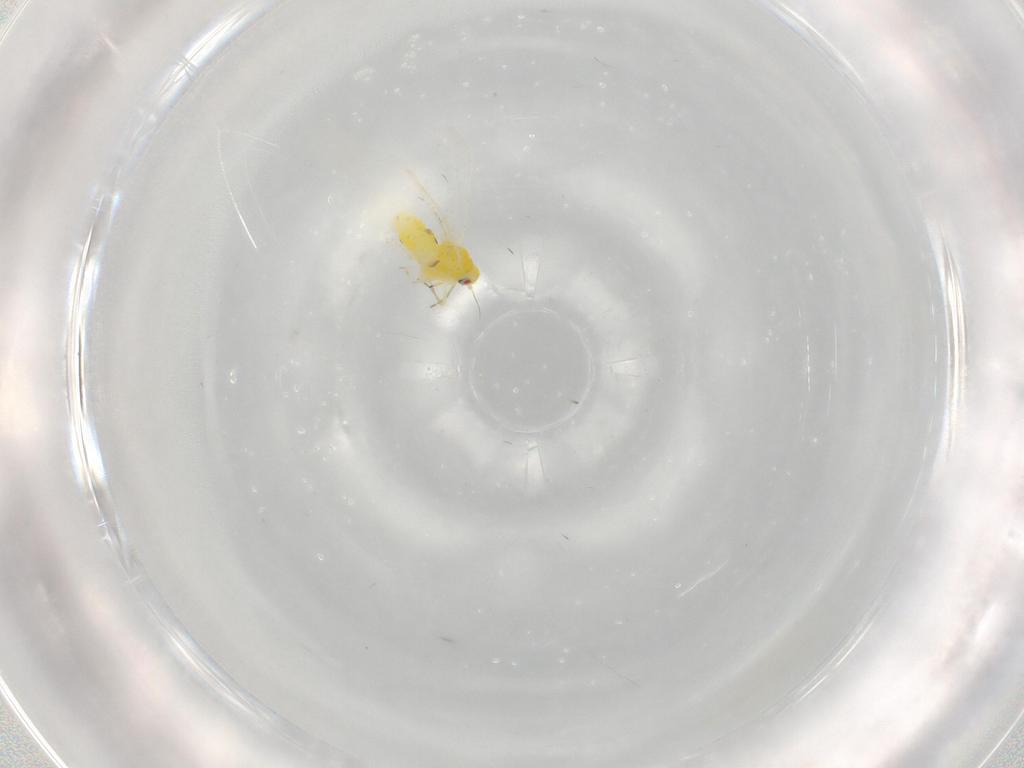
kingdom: Animalia
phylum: Arthropoda
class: Insecta
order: Hemiptera
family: Aleyrodidae
